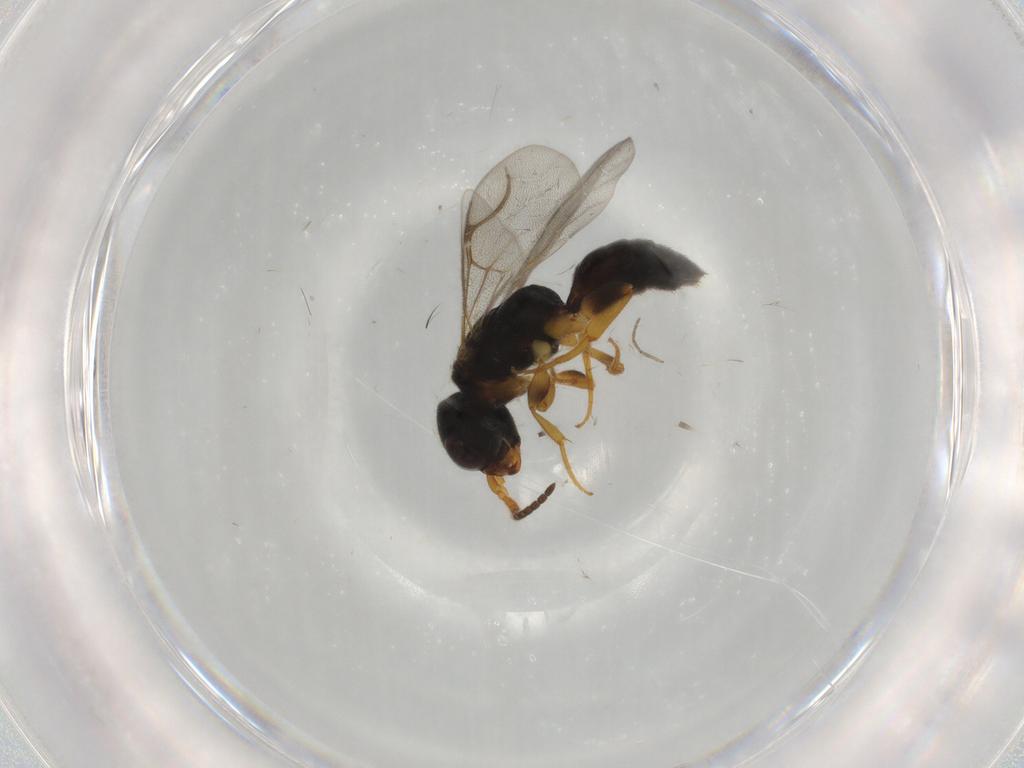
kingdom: Animalia
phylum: Arthropoda
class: Insecta
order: Hymenoptera
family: Bethylidae
